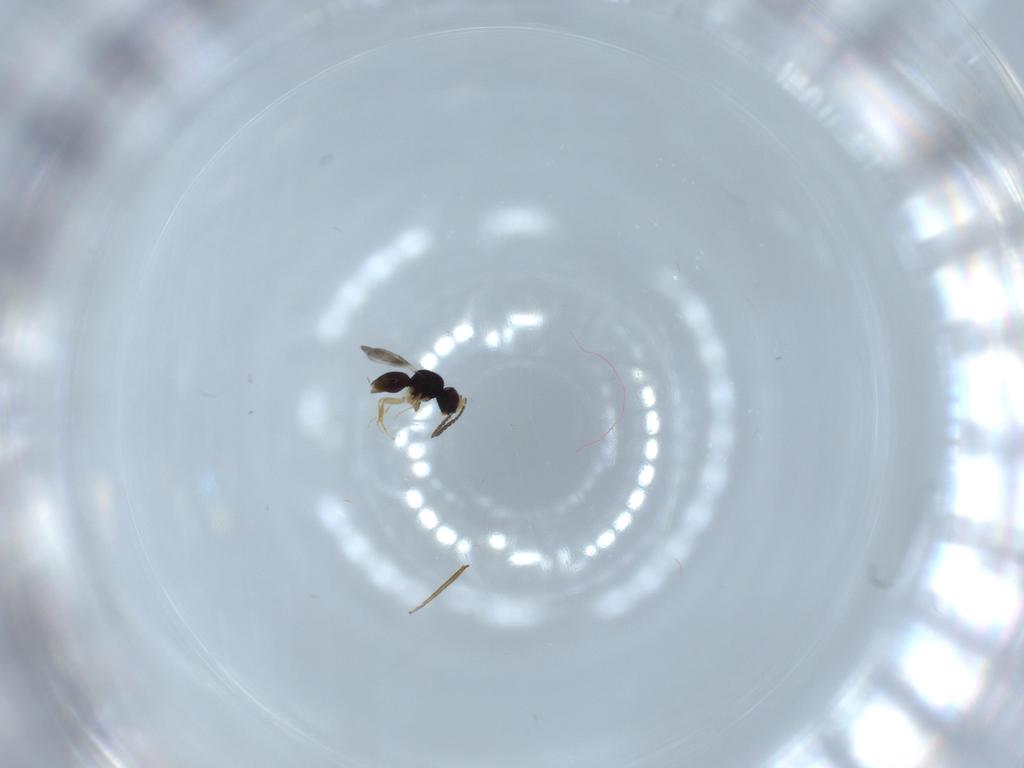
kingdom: Animalia
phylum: Arthropoda
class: Insecta
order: Hymenoptera
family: Ceraphronidae
